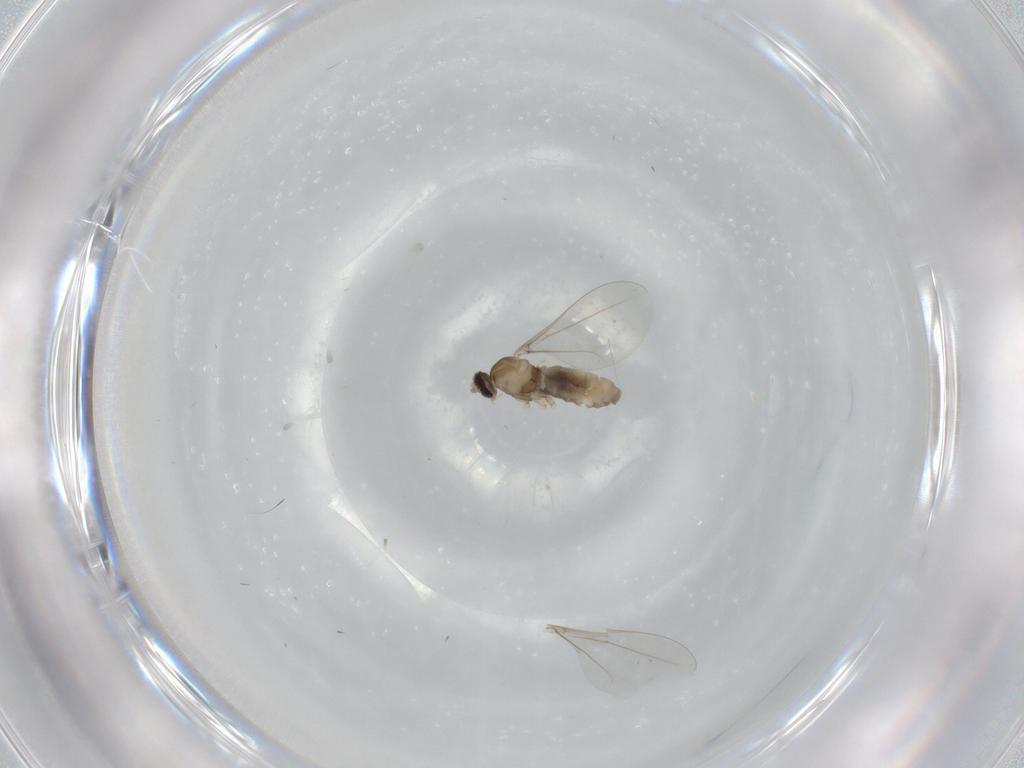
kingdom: Animalia
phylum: Arthropoda
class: Insecta
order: Diptera
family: Cecidomyiidae
